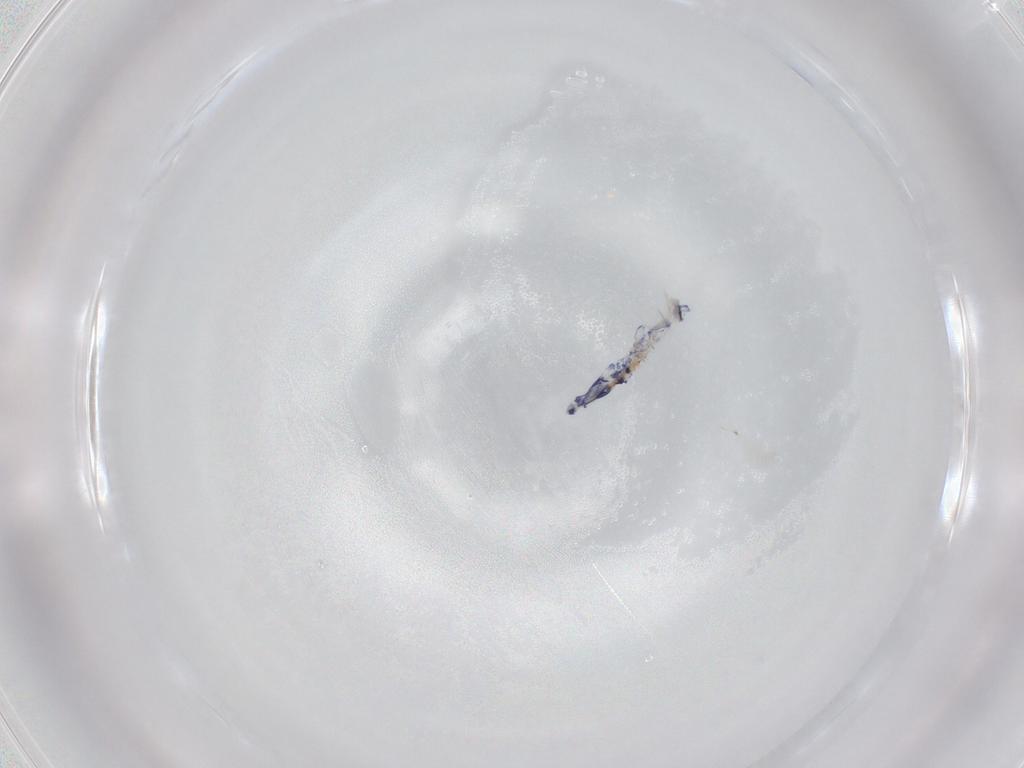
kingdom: Animalia
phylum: Arthropoda
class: Collembola
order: Entomobryomorpha
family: Entomobryidae
